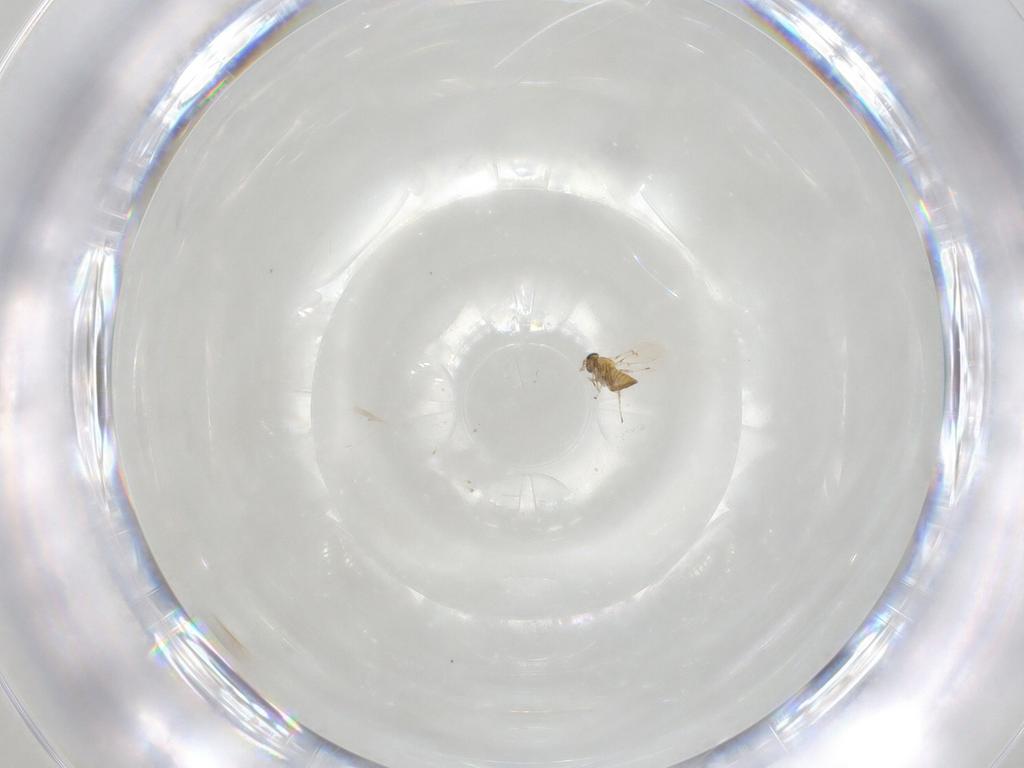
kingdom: Animalia
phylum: Arthropoda
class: Insecta
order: Hymenoptera
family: Trichogrammatidae
